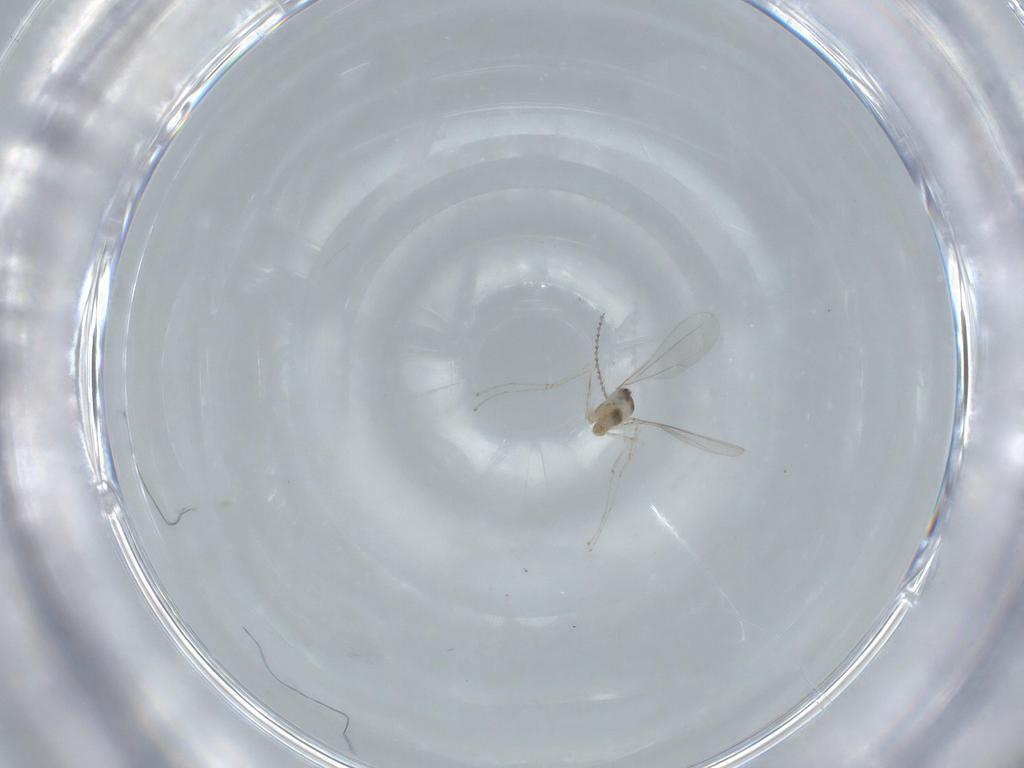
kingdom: Animalia
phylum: Arthropoda
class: Insecta
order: Diptera
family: Cecidomyiidae
